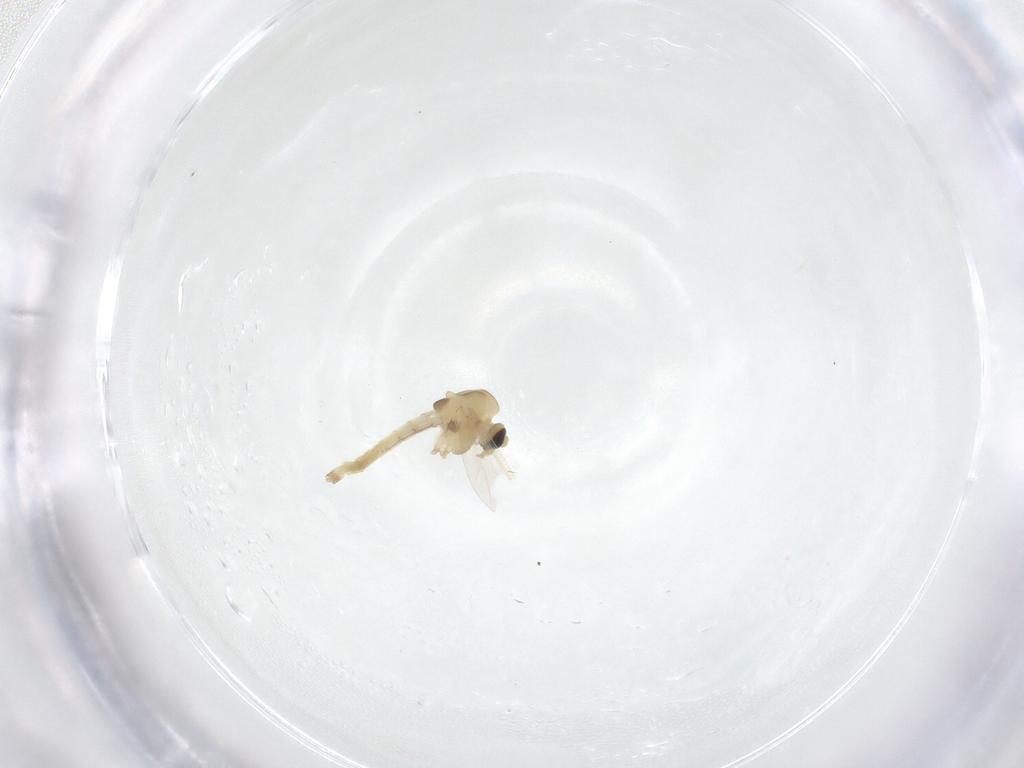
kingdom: Animalia
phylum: Arthropoda
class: Insecta
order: Diptera
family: Chironomidae
